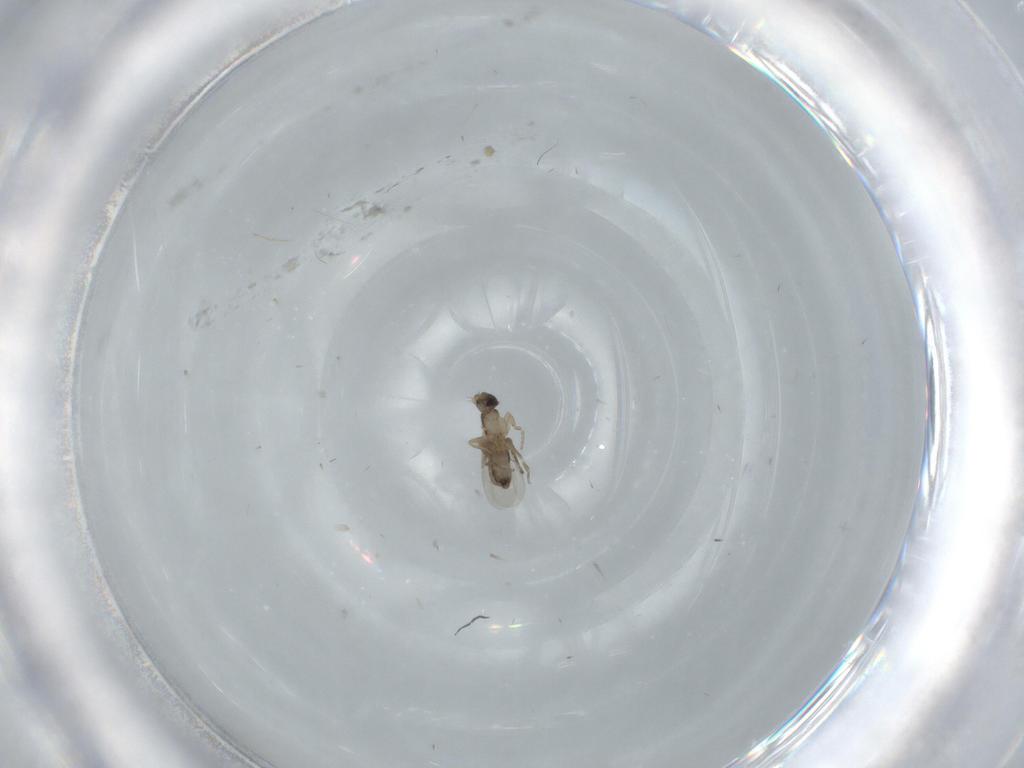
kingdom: Animalia
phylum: Arthropoda
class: Insecta
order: Diptera
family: Phoridae
